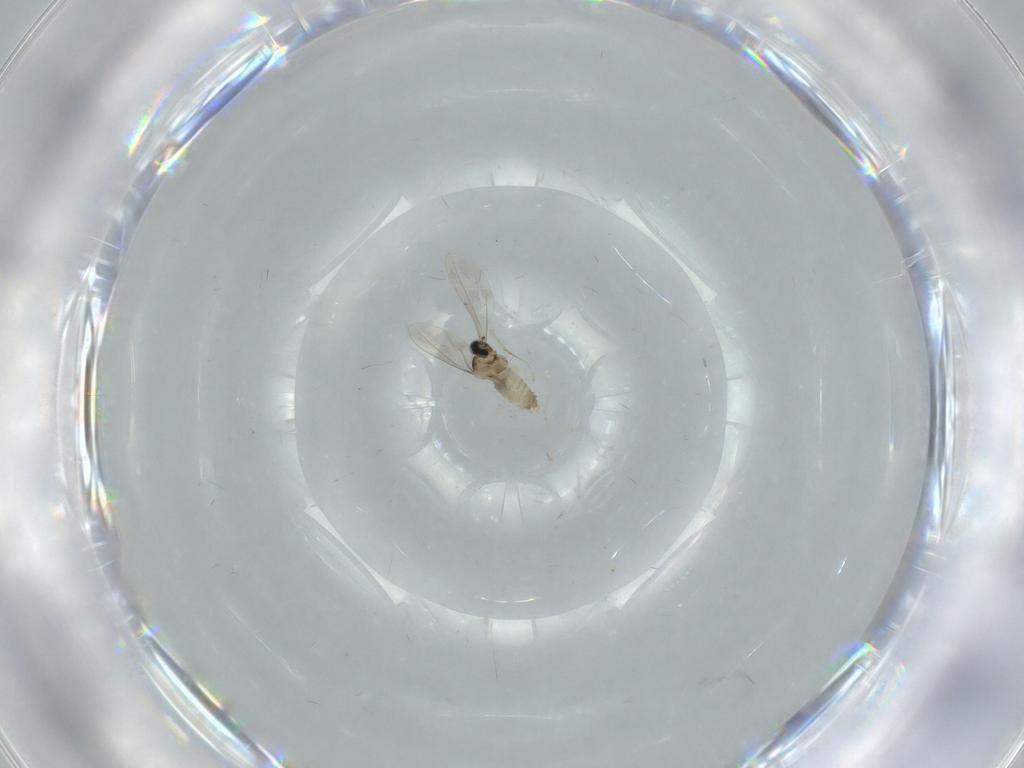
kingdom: Animalia
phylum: Arthropoda
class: Insecta
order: Diptera
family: Cecidomyiidae
